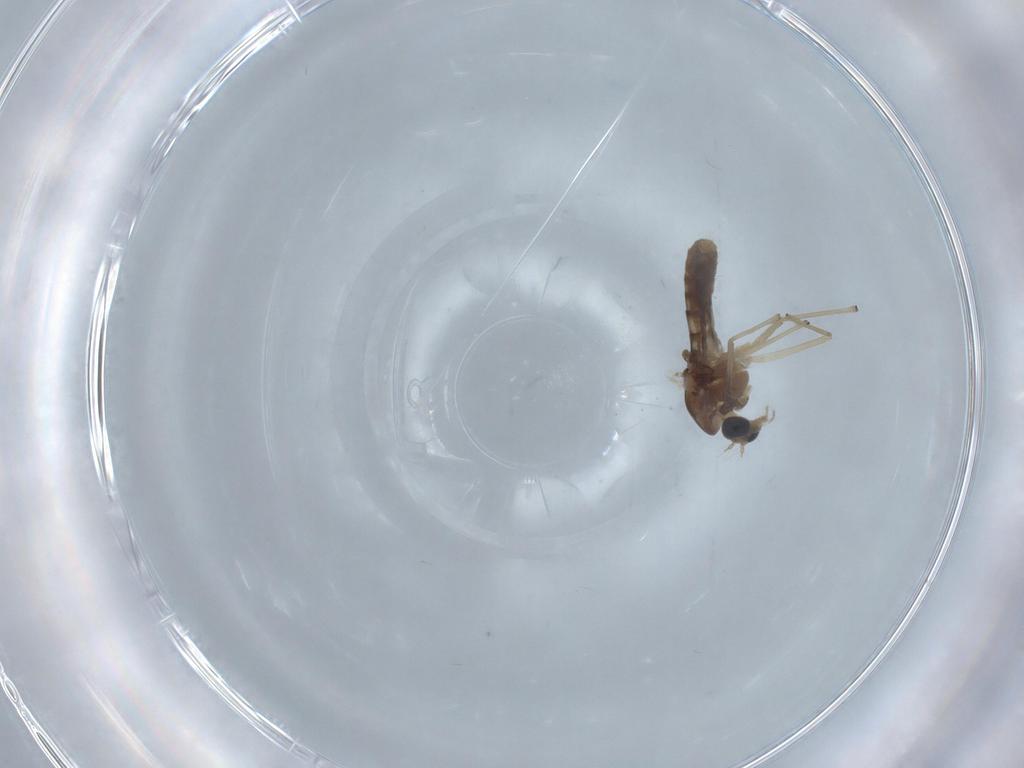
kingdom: Animalia
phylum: Arthropoda
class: Insecta
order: Diptera
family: Chironomidae
